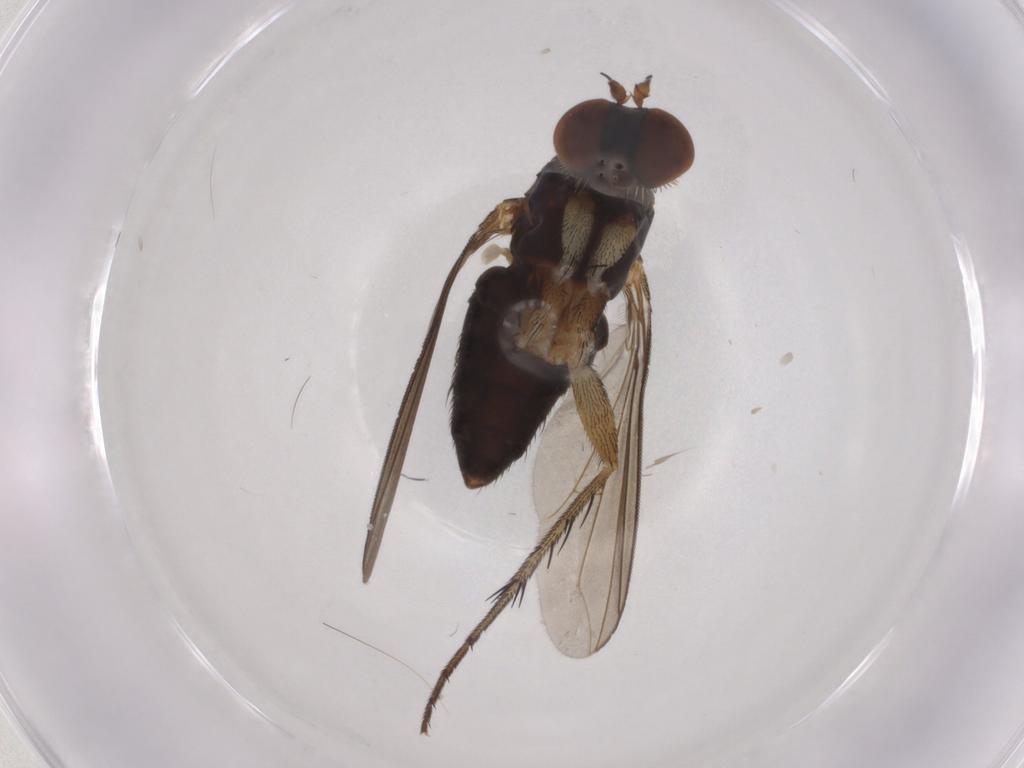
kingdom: Animalia
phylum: Arthropoda
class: Insecta
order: Diptera
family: Dolichopodidae
